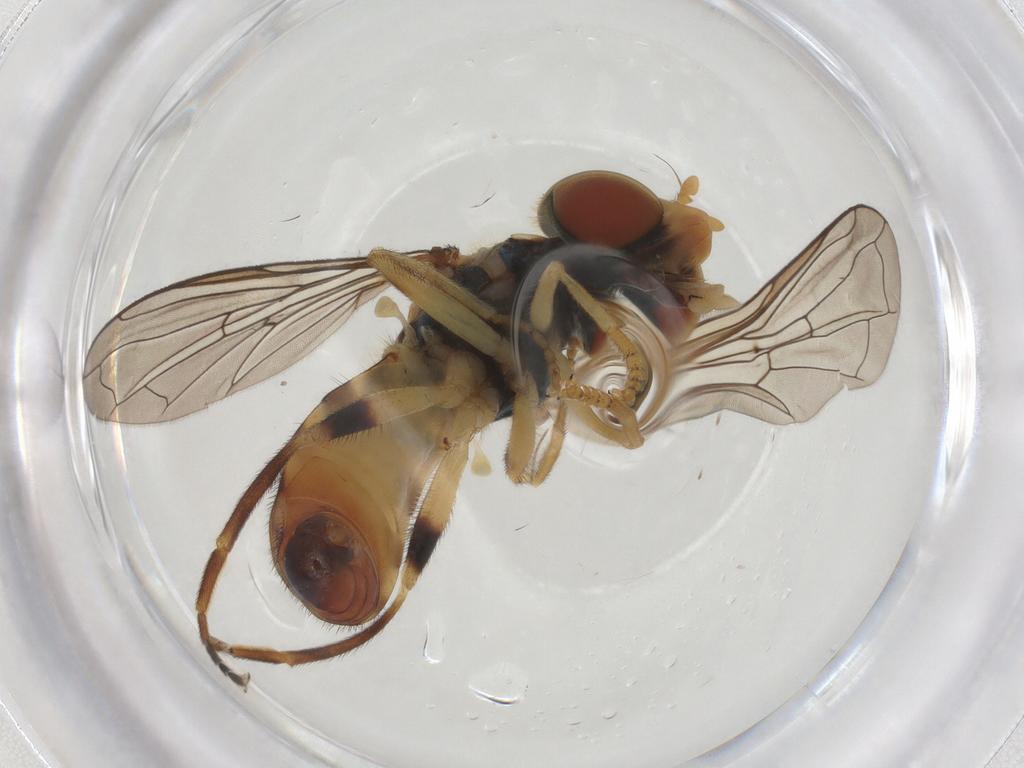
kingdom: Animalia
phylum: Arthropoda
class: Insecta
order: Diptera
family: Syrphidae
